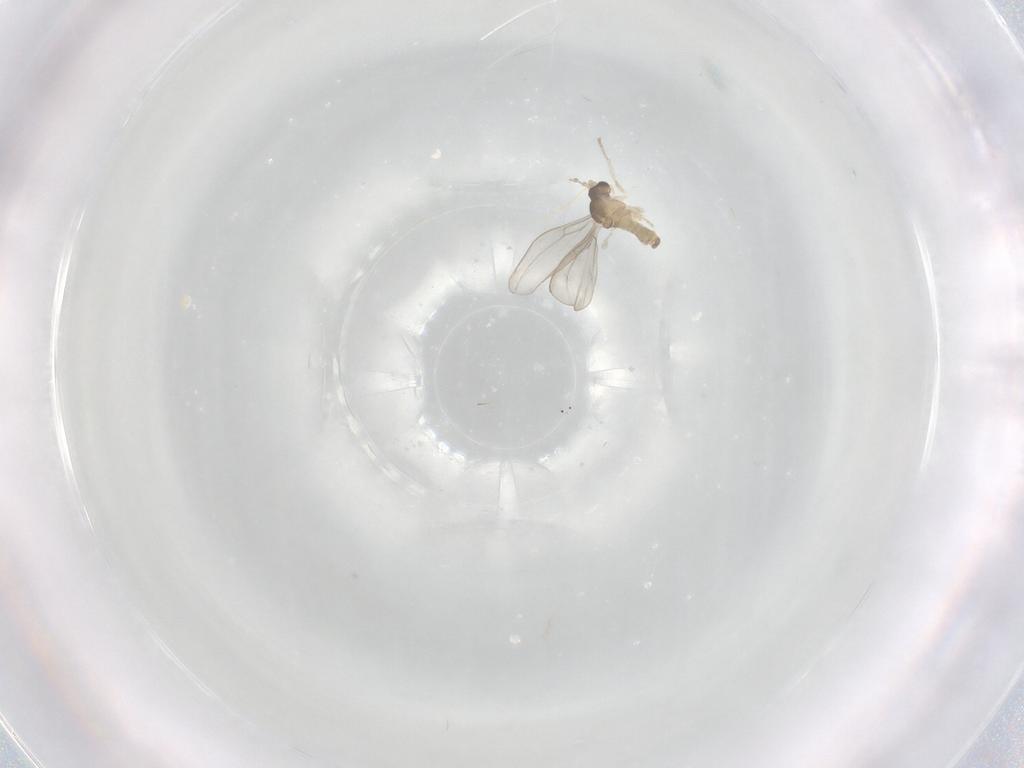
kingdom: Animalia
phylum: Arthropoda
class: Insecta
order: Diptera
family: Cecidomyiidae
